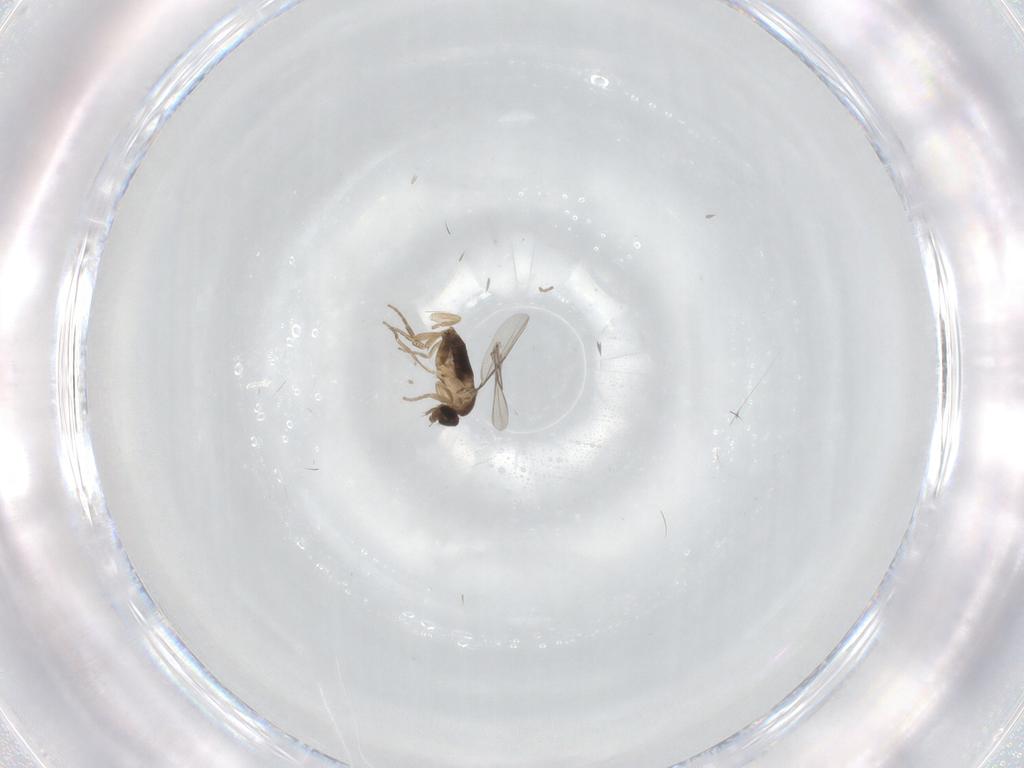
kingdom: Animalia
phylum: Arthropoda
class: Insecta
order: Diptera
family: Phoridae
